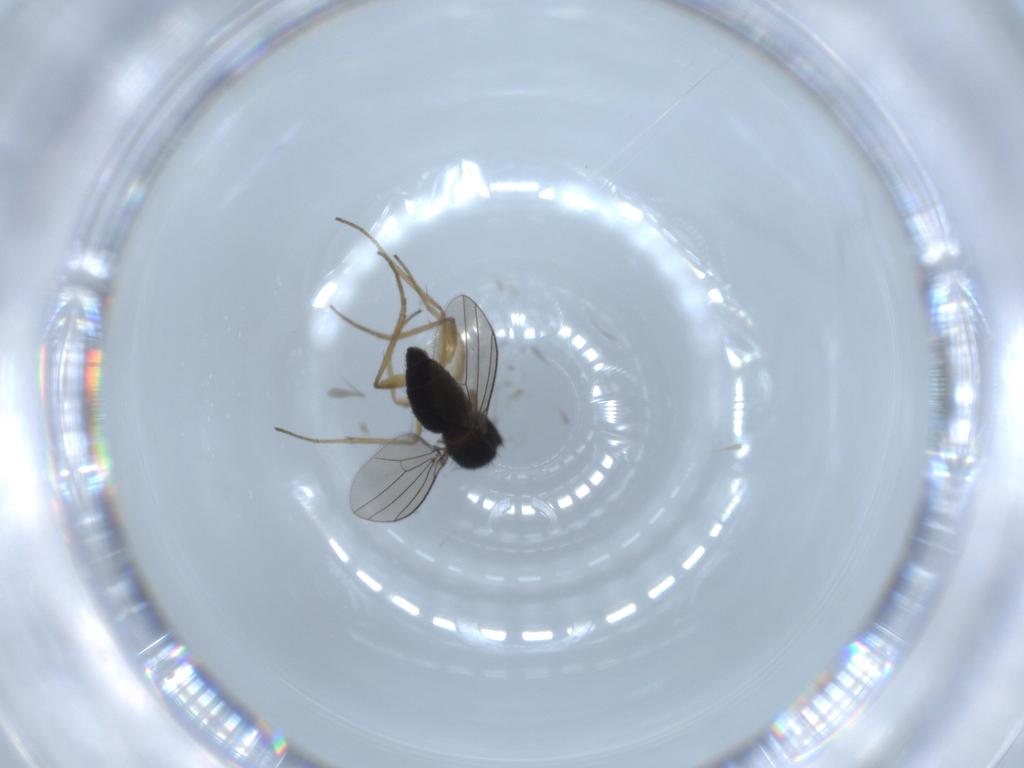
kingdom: Animalia
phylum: Arthropoda
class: Insecta
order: Diptera
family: Dolichopodidae
